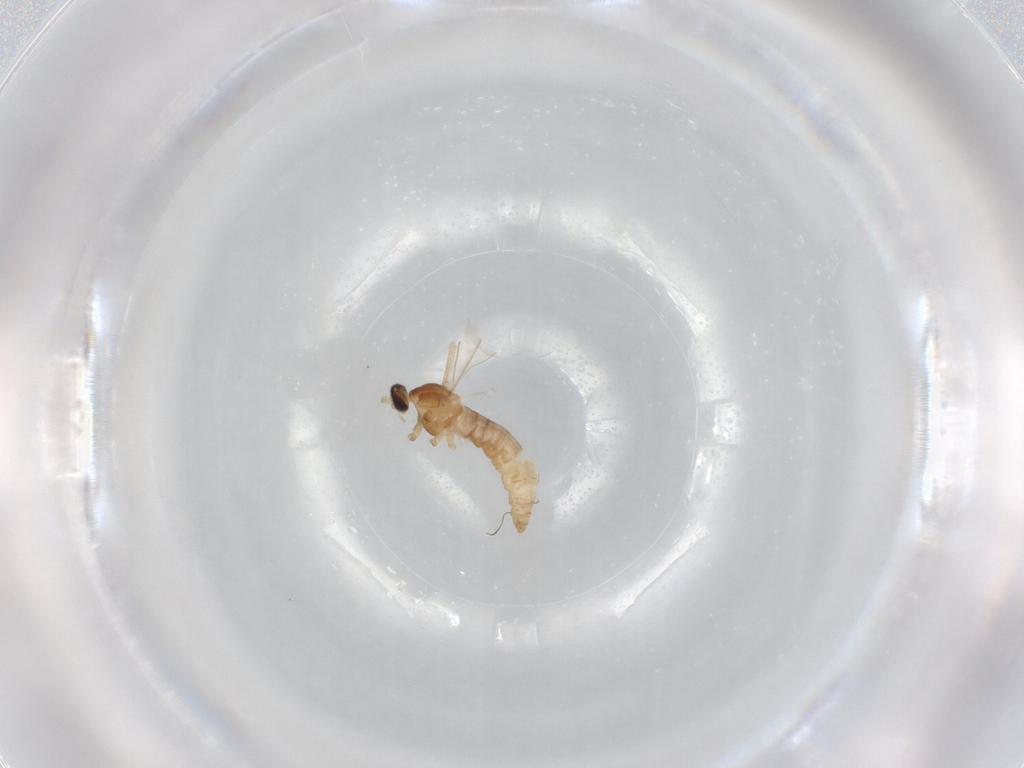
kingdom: Animalia
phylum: Arthropoda
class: Insecta
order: Diptera
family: Cecidomyiidae
